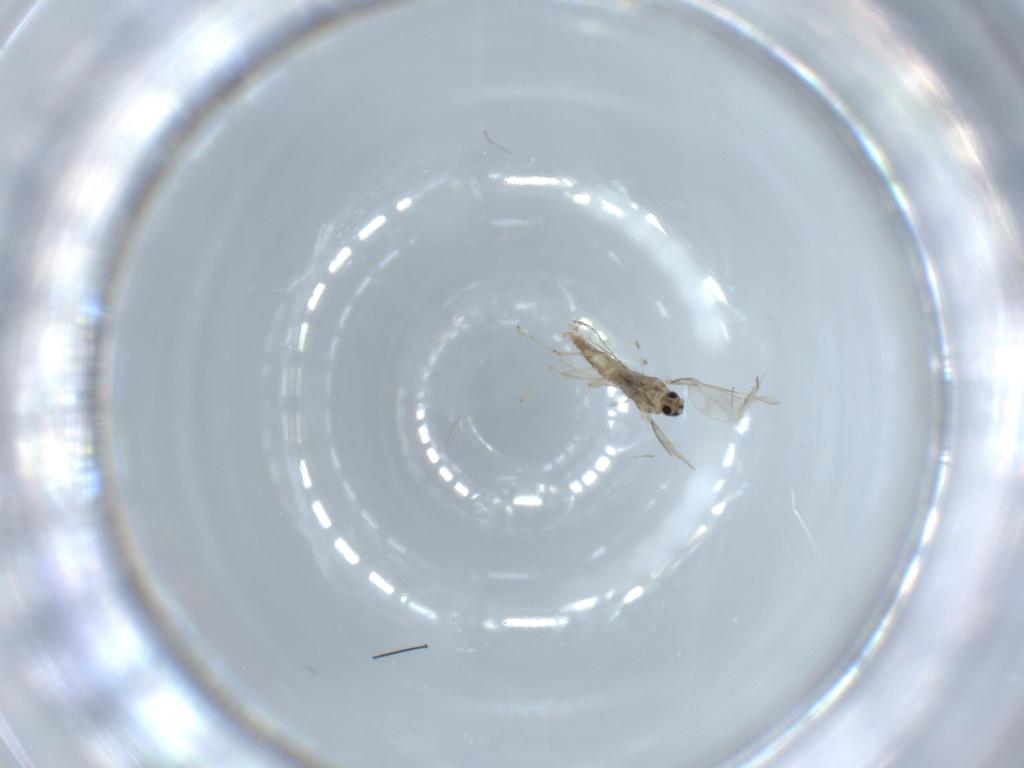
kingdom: Animalia
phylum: Arthropoda
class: Insecta
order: Diptera
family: Cecidomyiidae
